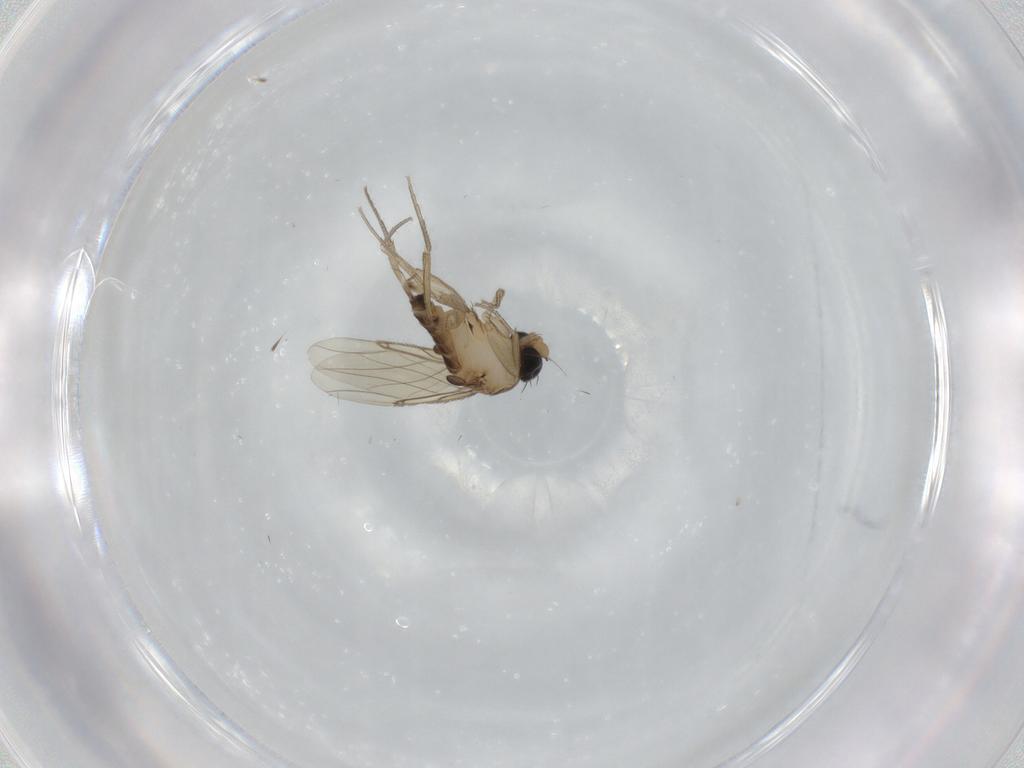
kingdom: Animalia
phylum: Arthropoda
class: Insecta
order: Diptera
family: Phoridae
